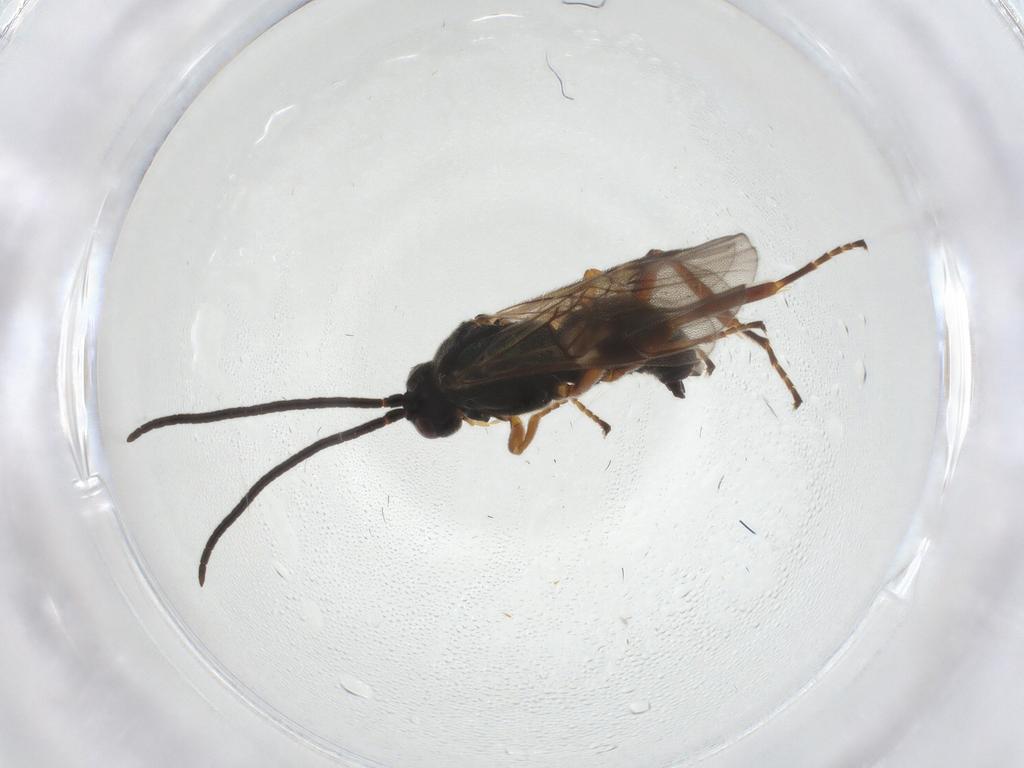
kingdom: Animalia
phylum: Arthropoda
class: Insecta
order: Hymenoptera
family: Braconidae
